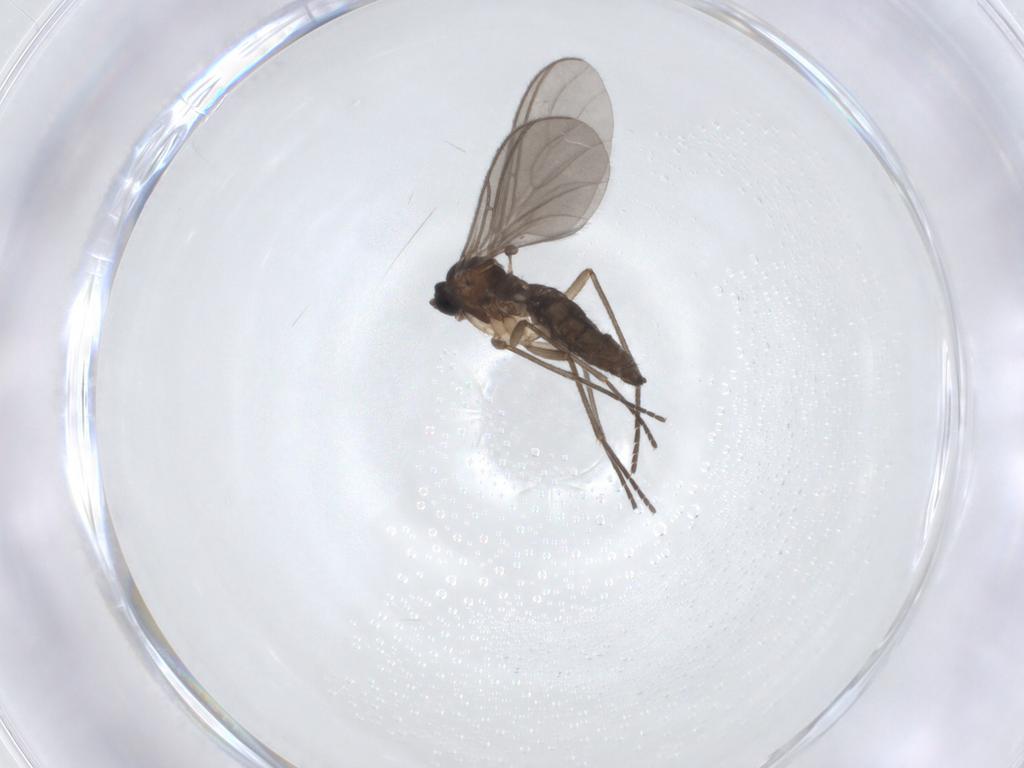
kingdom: Animalia
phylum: Arthropoda
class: Insecta
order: Diptera
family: Sciaridae
